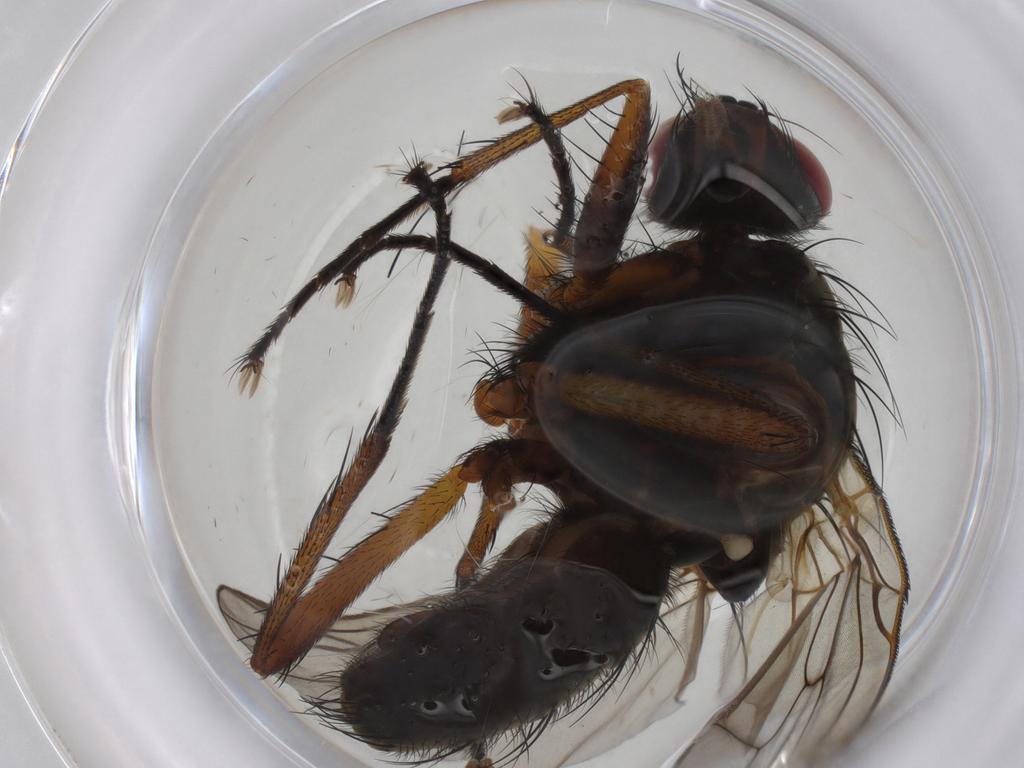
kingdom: Animalia
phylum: Arthropoda
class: Insecta
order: Diptera
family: Anthomyiidae
